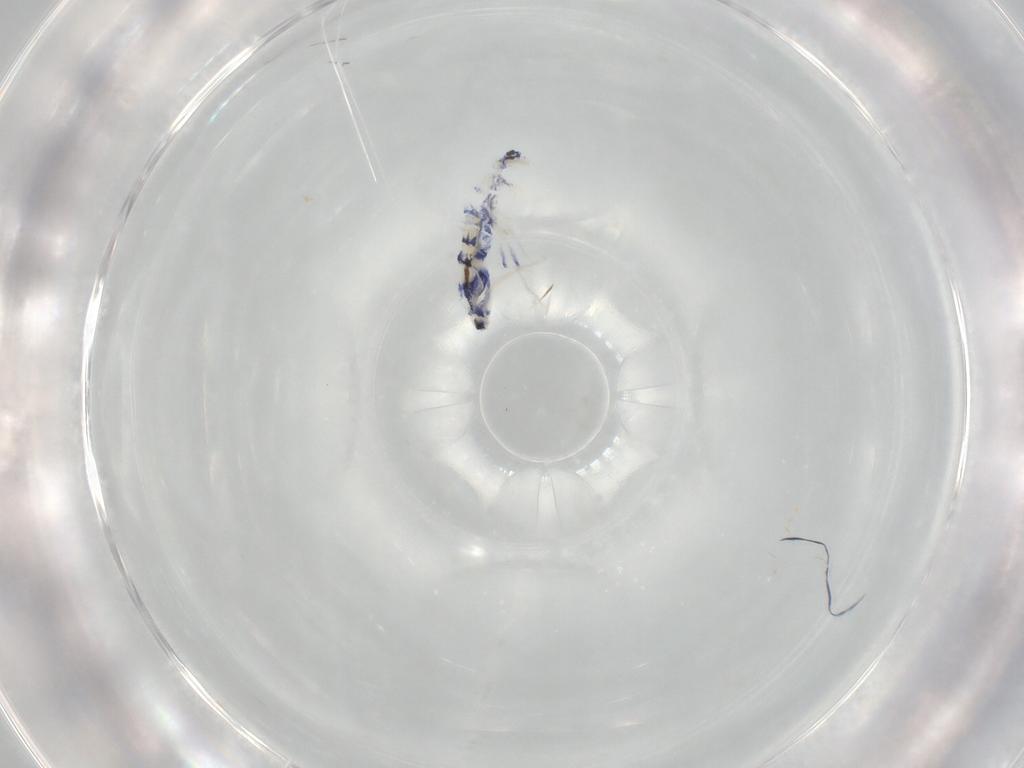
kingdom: Animalia
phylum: Arthropoda
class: Collembola
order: Entomobryomorpha
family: Entomobryidae
